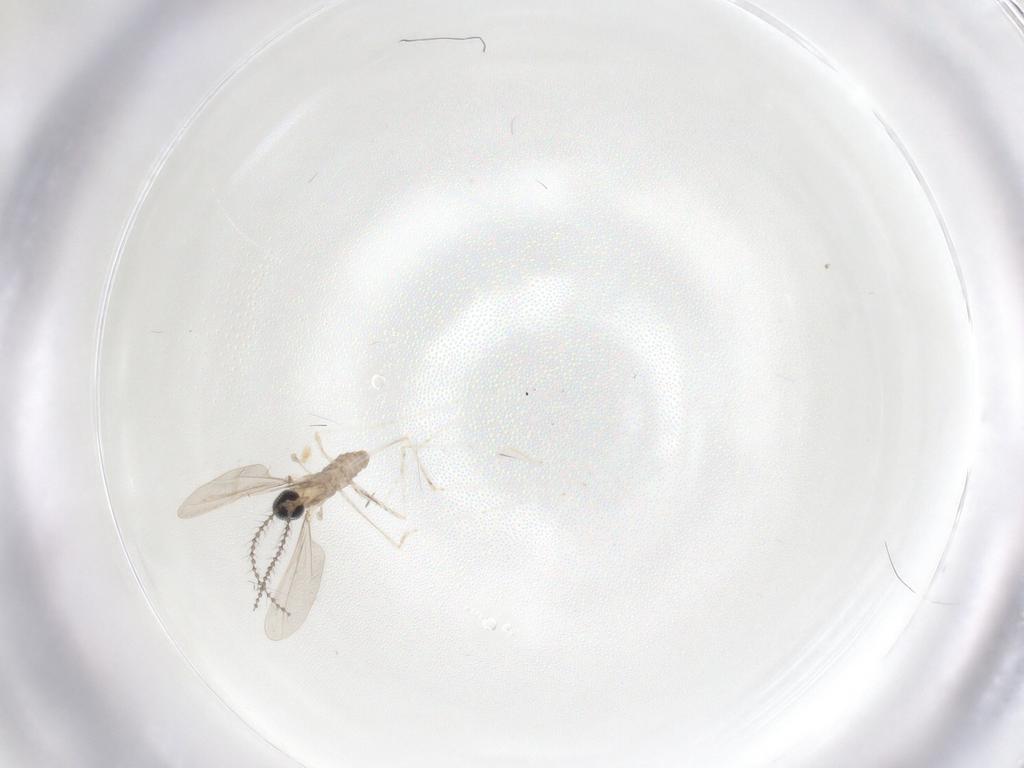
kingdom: Animalia
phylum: Arthropoda
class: Insecta
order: Diptera
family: Cecidomyiidae
